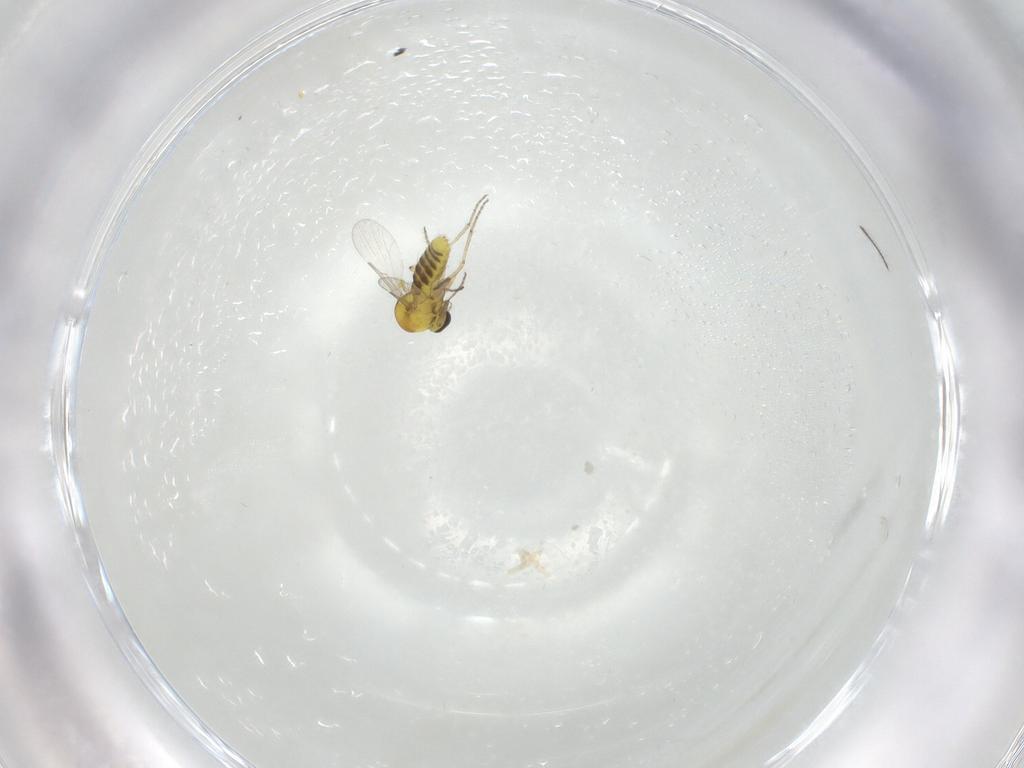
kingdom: Animalia
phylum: Arthropoda
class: Insecta
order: Diptera
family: Ceratopogonidae
